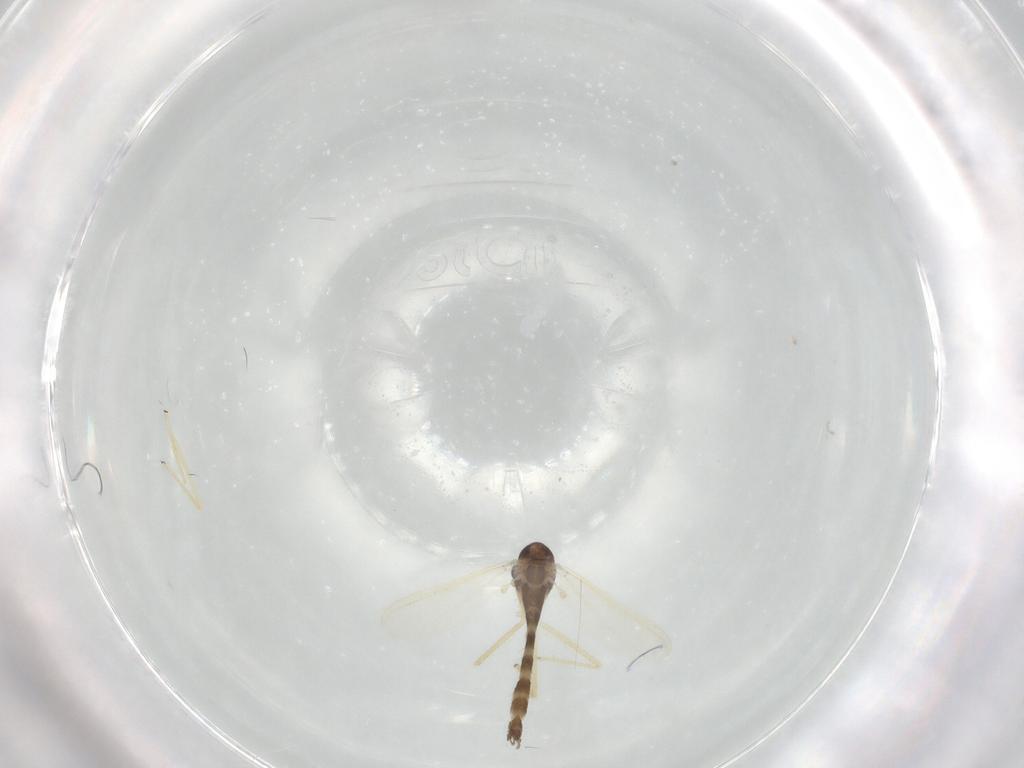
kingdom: Animalia
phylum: Arthropoda
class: Insecta
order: Diptera
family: Chironomidae
